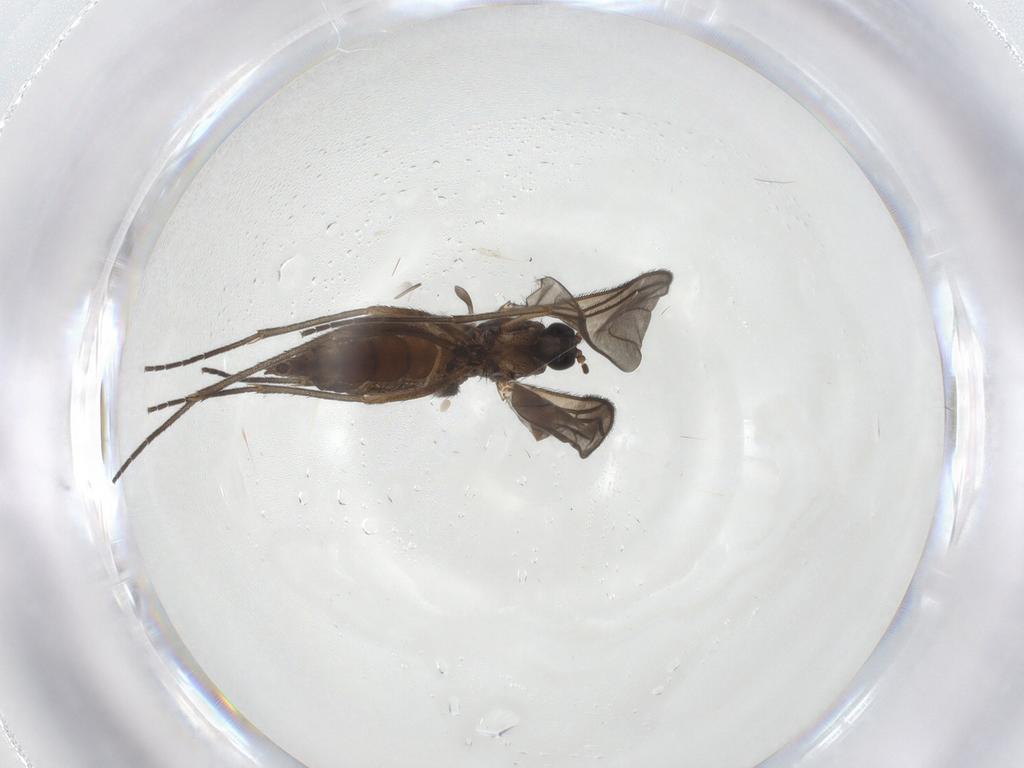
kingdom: Animalia
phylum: Arthropoda
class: Insecta
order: Diptera
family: Sciaridae
